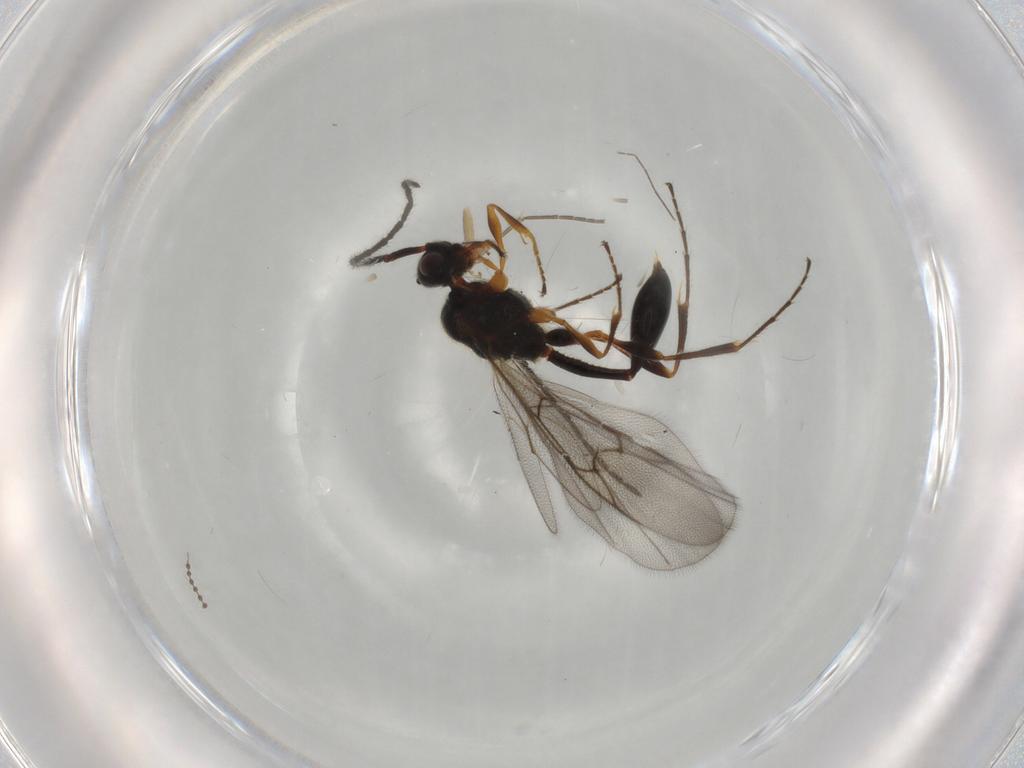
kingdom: Animalia
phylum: Arthropoda
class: Insecta
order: Hymenoptera
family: Diapriidae
